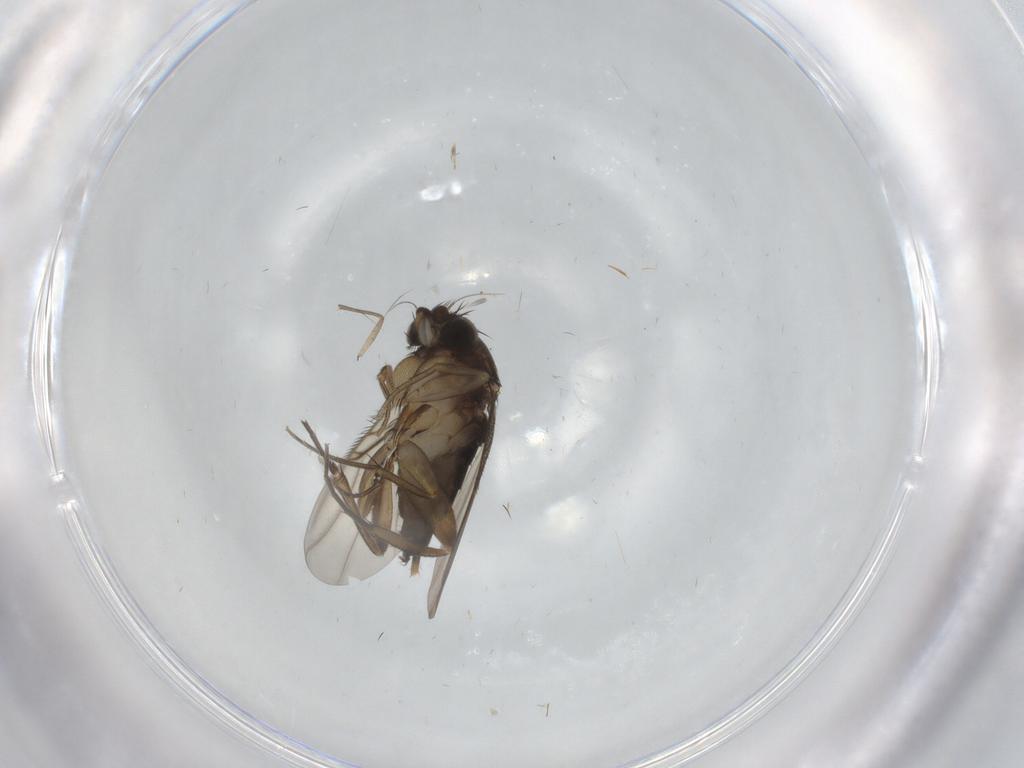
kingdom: Animalia
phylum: Arthropoda
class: Insecta
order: Diptera
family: Phoridae
